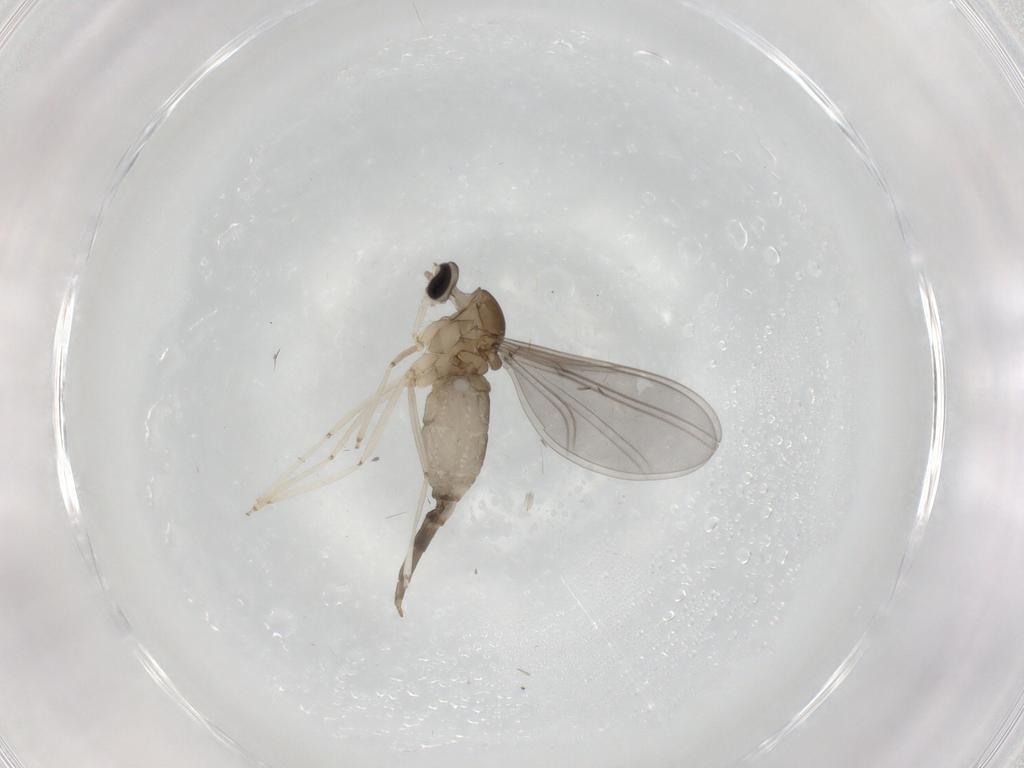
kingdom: Animalia
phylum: Arthropoda
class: Insecta
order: Diptera
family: Cecidomyiidae
